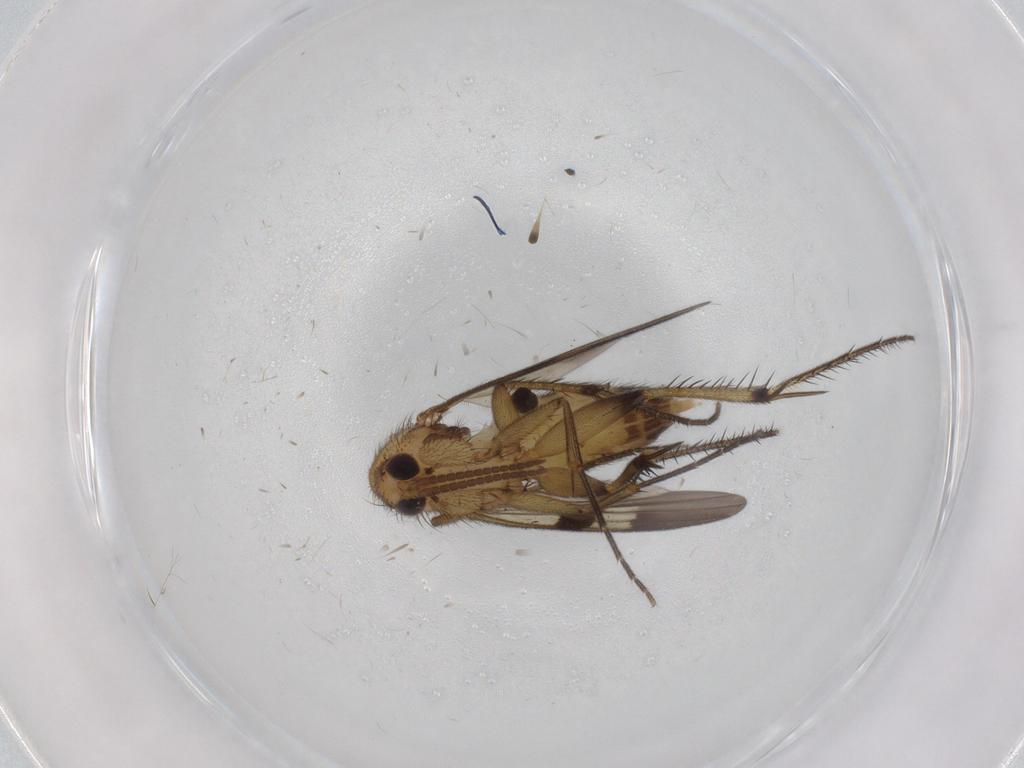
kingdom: Animalia
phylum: Arthropoda
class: Insecta
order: Diptera
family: Mycetophilidae
